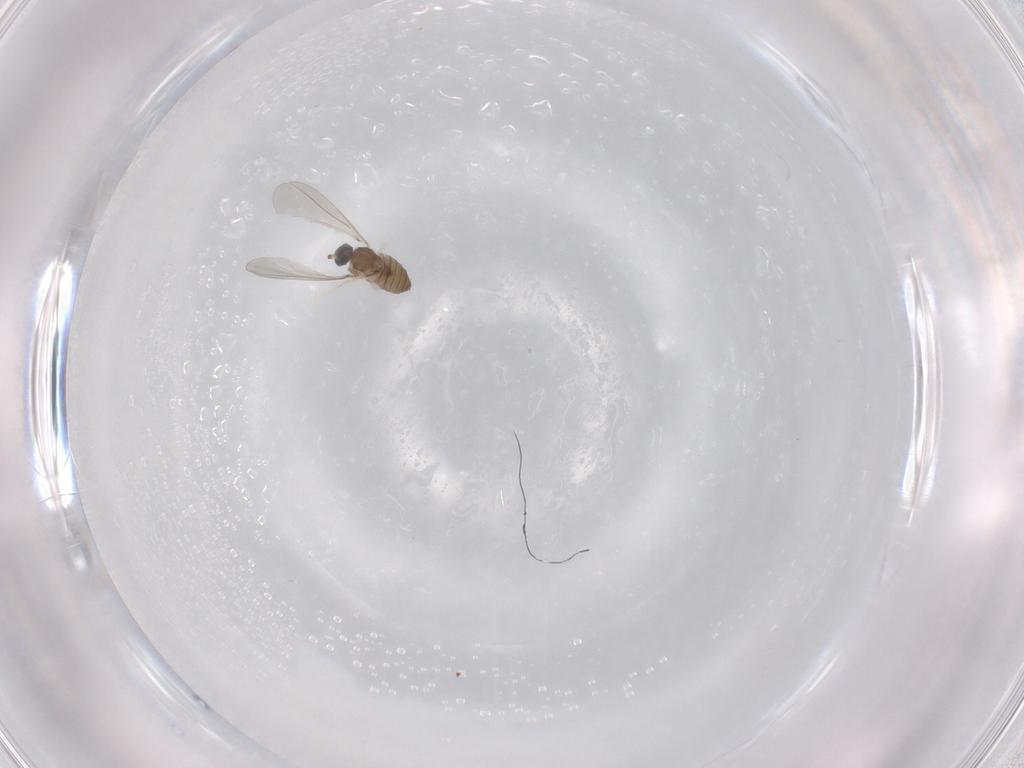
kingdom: Animalia
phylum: Arthropoda
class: Insecta
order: Diptera
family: Cecidomyiidae
